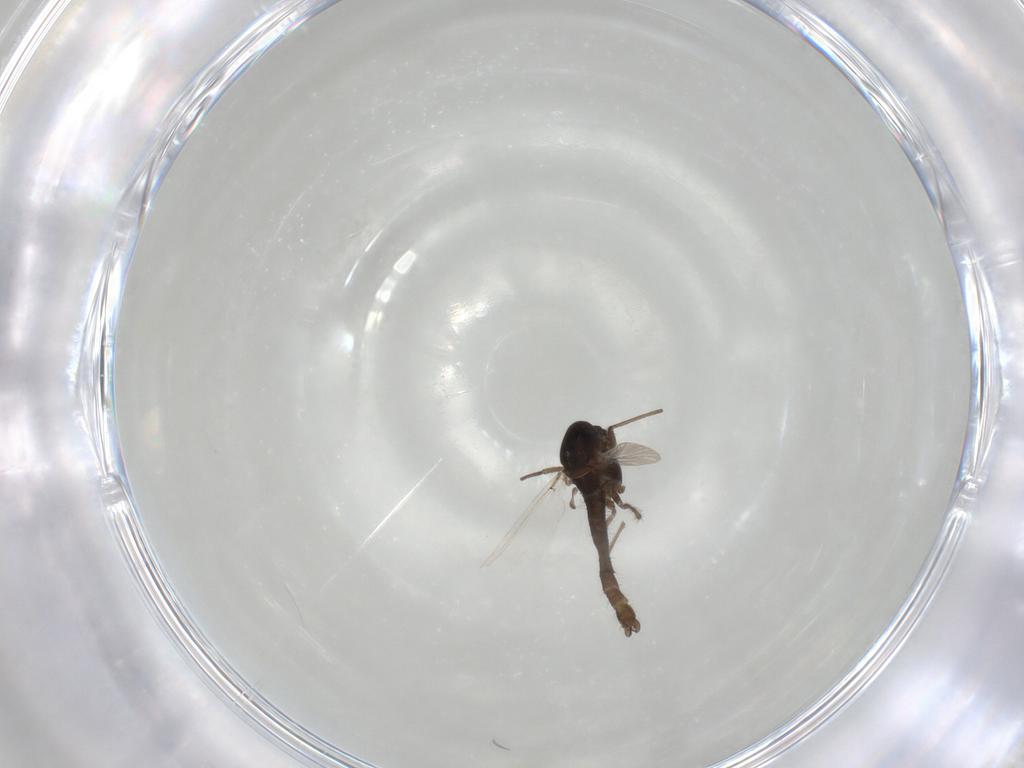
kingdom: Animalia
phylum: Arthropoda
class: Insecta
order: Diptera
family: Chironomidae
